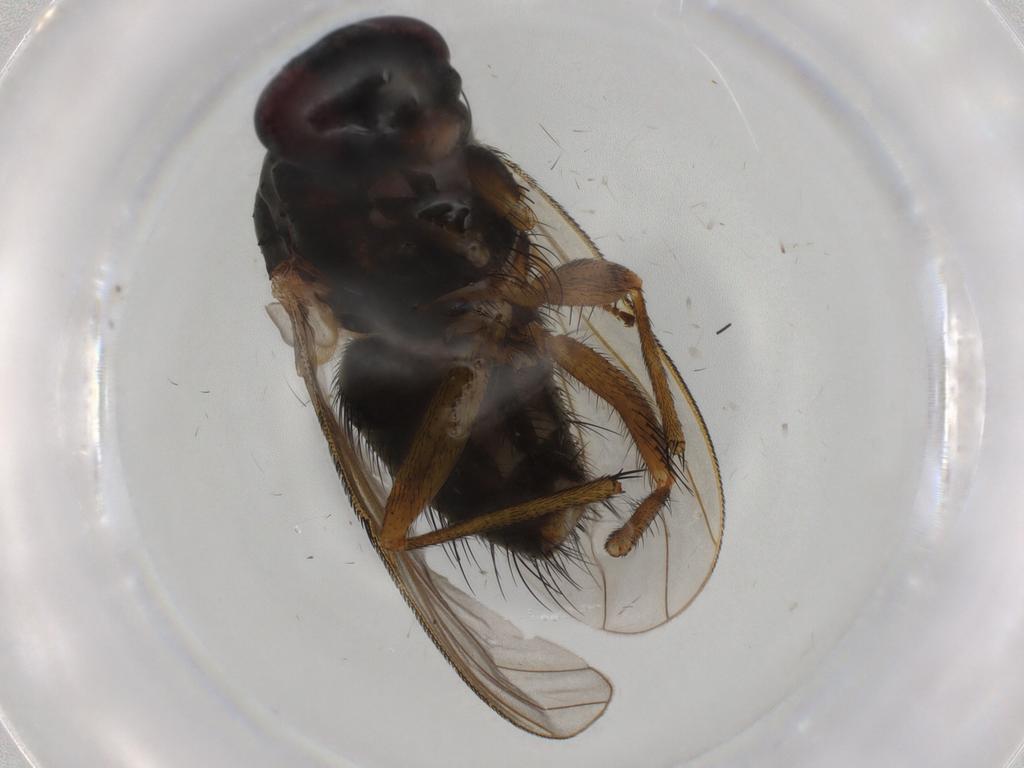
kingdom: Animalia
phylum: Arthropoda
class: Insecta
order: Diptera
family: Muscidae
